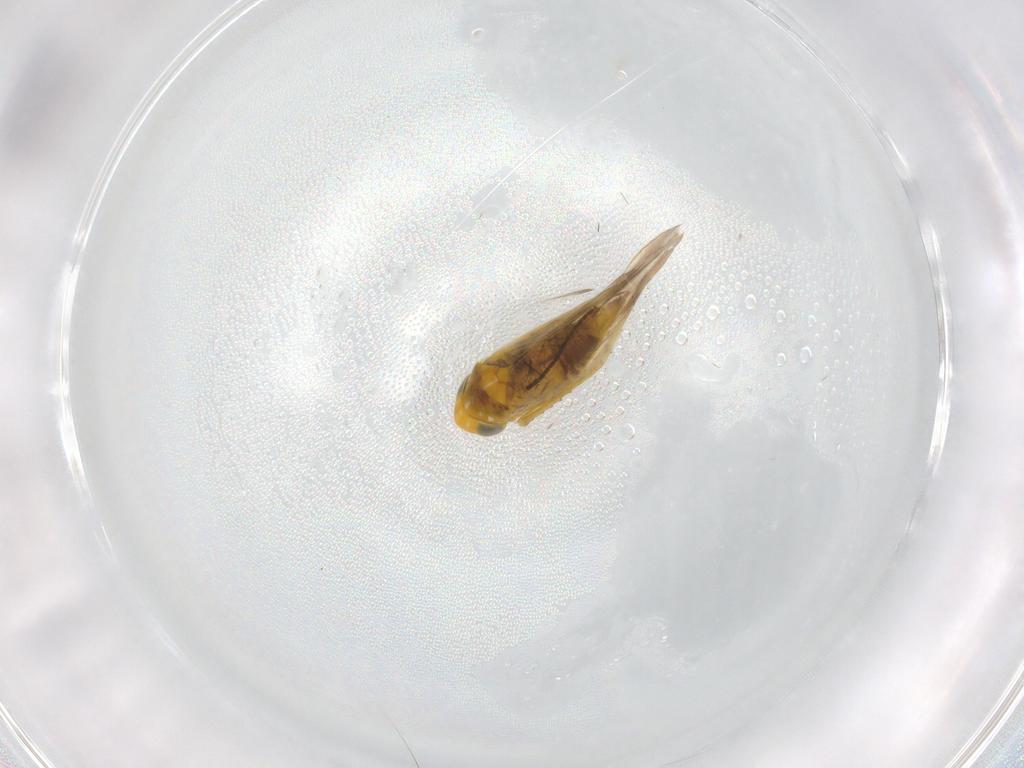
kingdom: Animalia
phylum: Arthropoda
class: Insecta
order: Hemiptera
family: Cicadellidae
